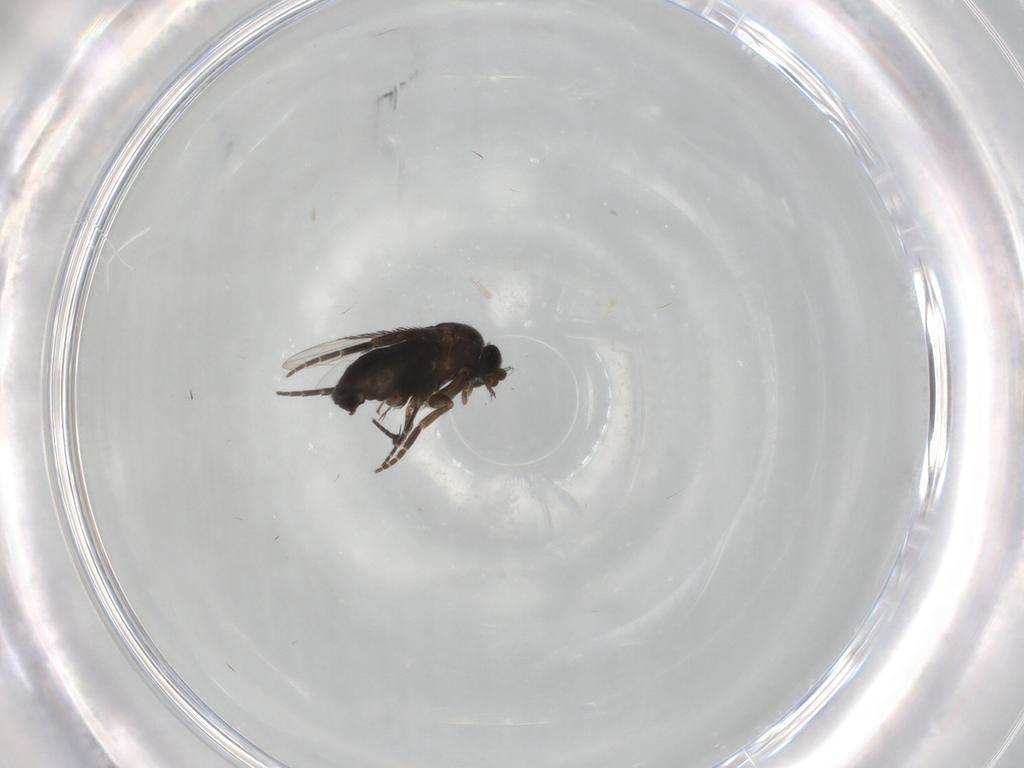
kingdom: Animalia
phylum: Arthropoda
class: Insecta
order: Diptera
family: Phoridae
